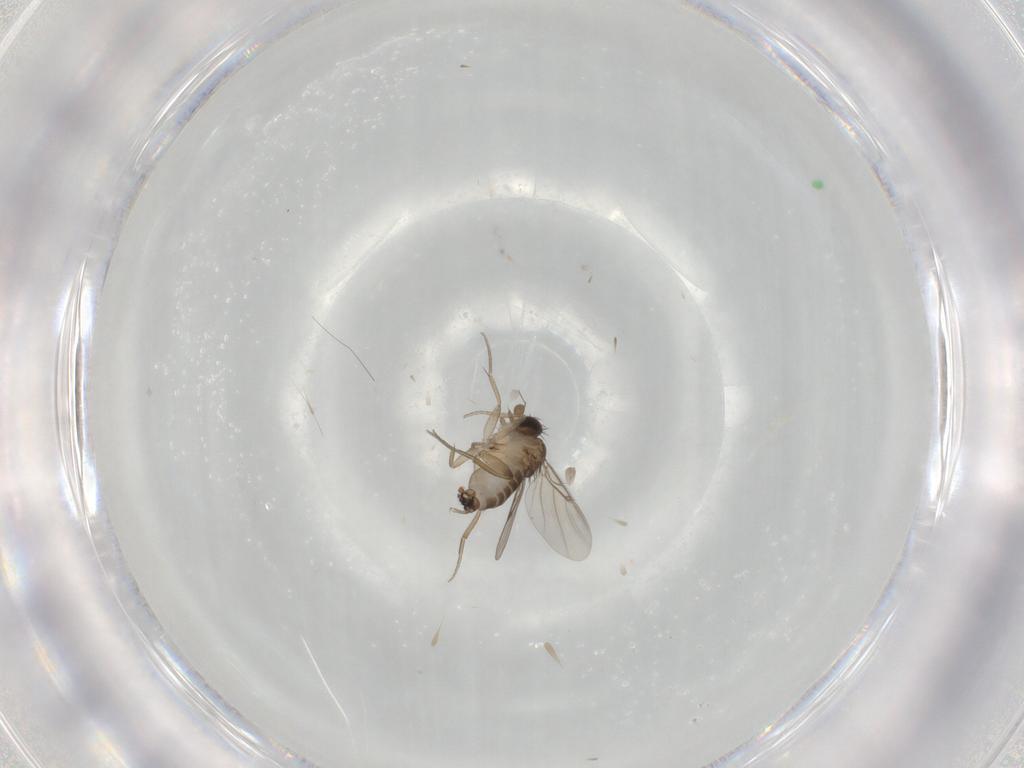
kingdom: Animalia
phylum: Arthropoda
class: Insecta
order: Diptera
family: Phoridae
